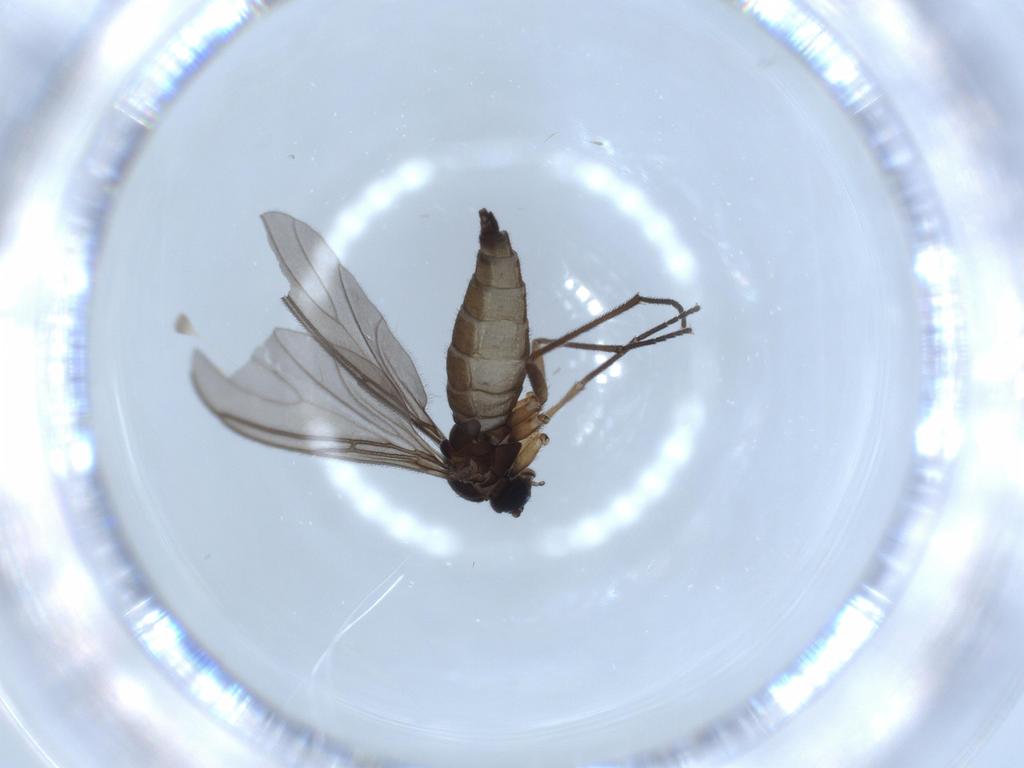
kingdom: Animalia
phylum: Arthropoda
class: Insecta
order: Diptera
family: Sciaridae
